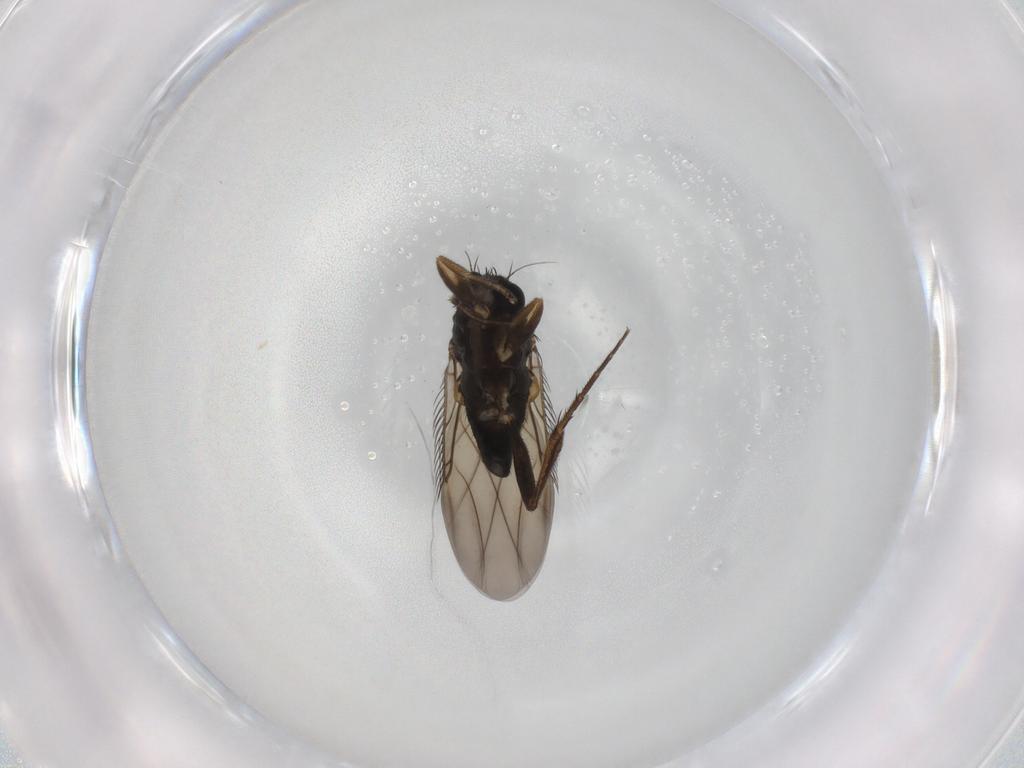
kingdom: Animalia
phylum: Arthropoda
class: Insecta
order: Diptera
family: Phoridae
